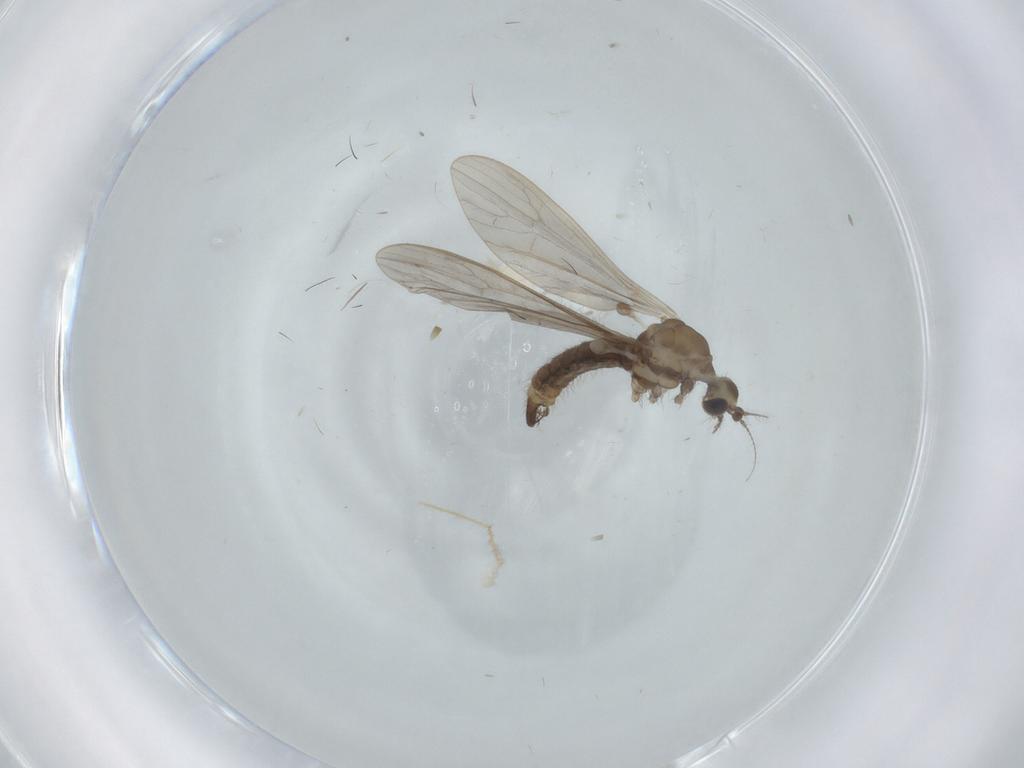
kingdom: Animalia
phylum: Arthropoda
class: Insecta
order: Diptera
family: Limoniidae
